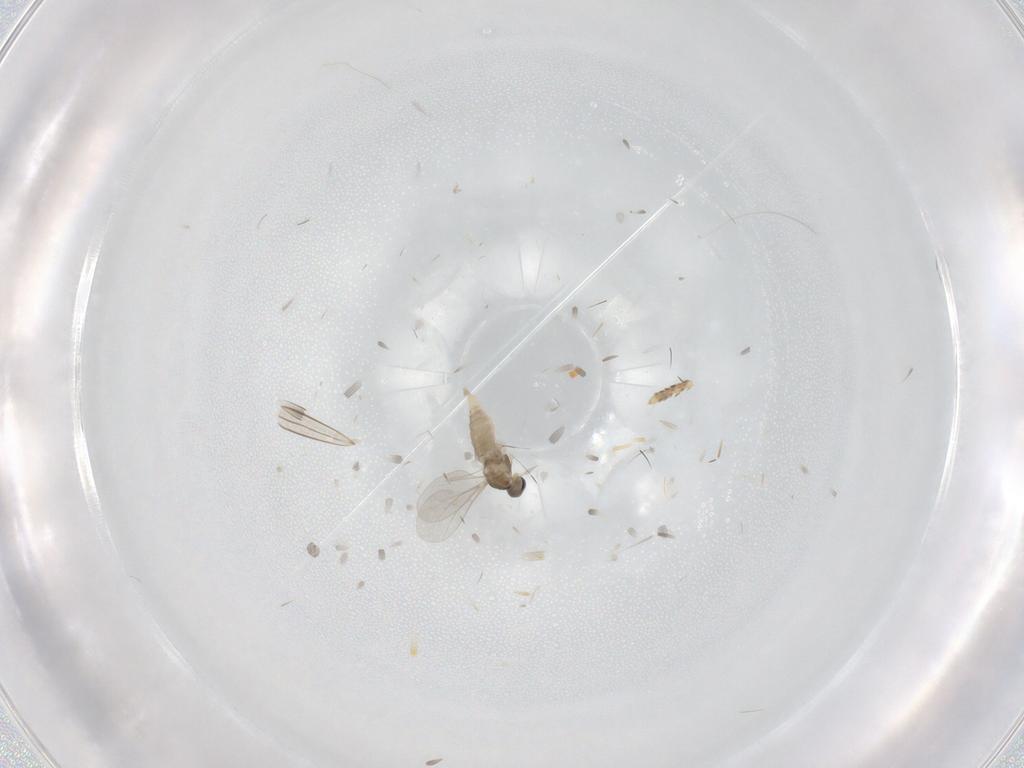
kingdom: Animalia
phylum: Arthropoda
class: Insecta
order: Diptera
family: Cecidomyiidae
